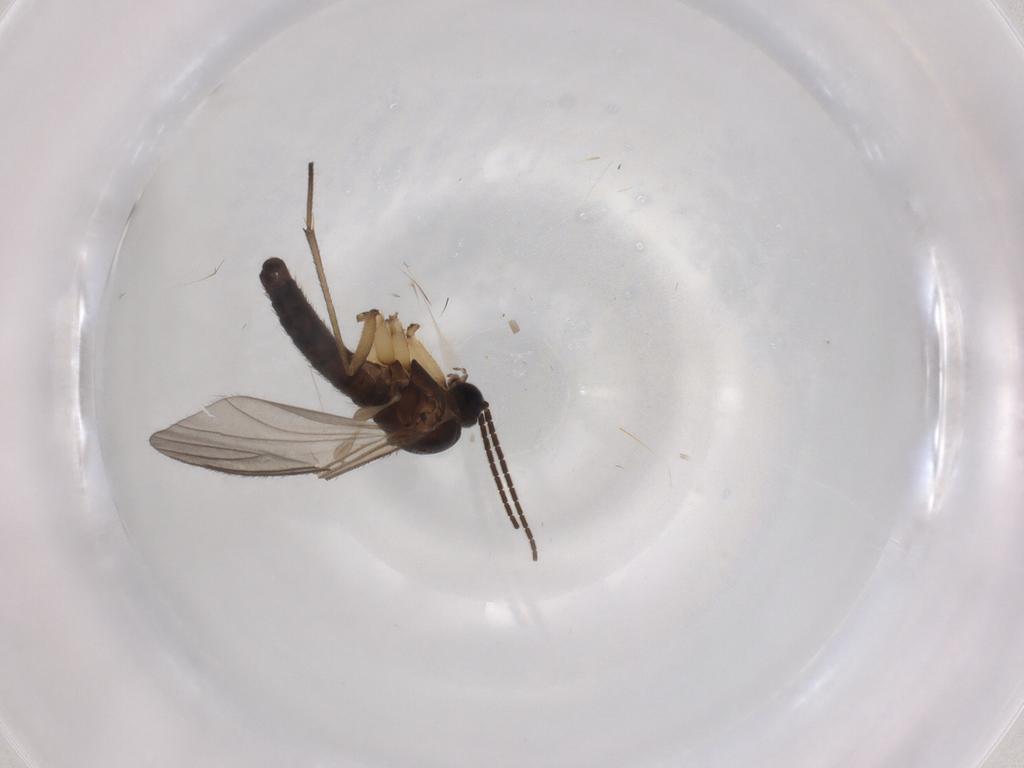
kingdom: Animalia
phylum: Arthropoda
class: Insecta
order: Diptera
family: Sciaridae
